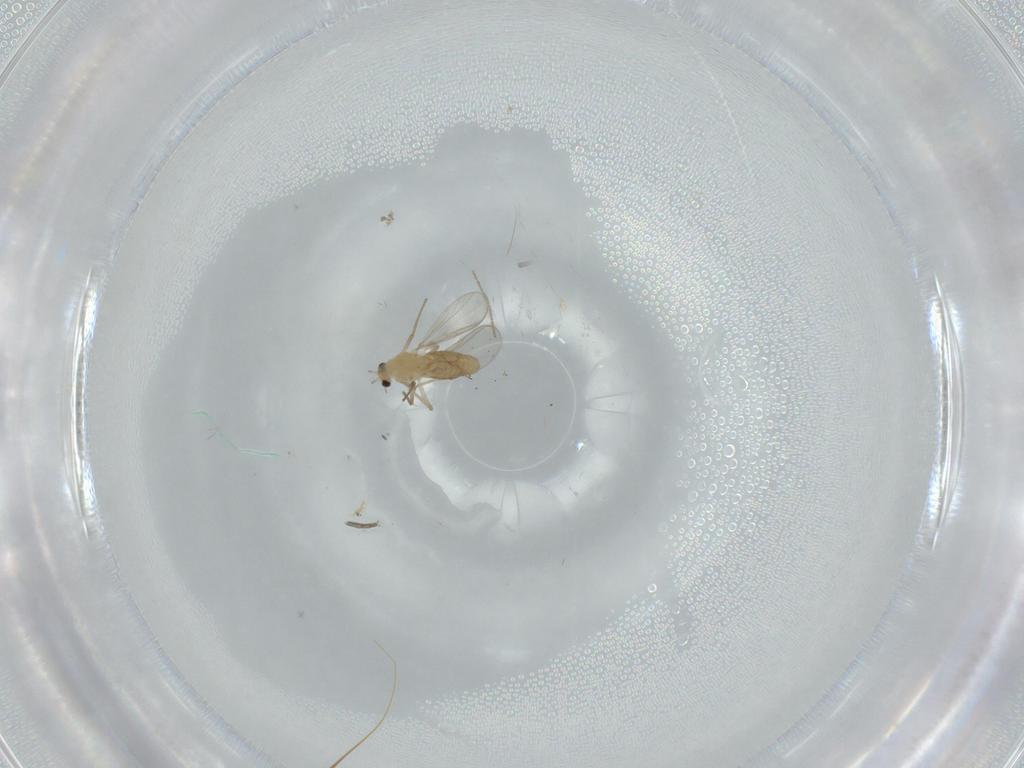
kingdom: Animalia
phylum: Arthropoda
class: Insecta
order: Diptera
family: Chironomidae
